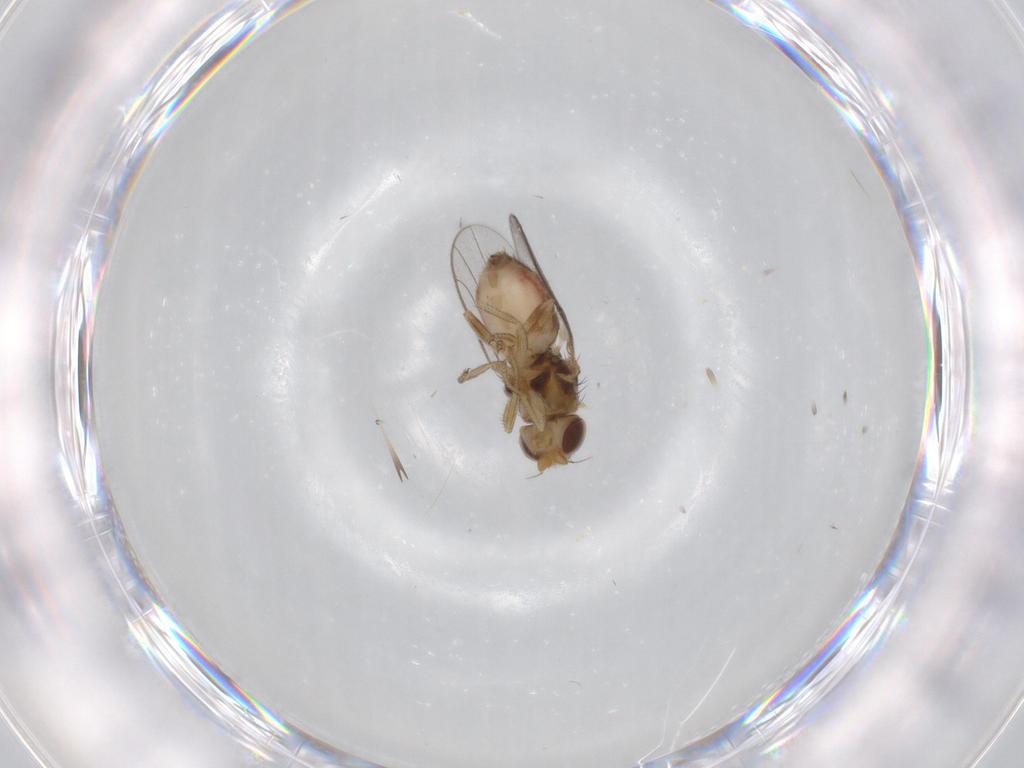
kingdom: Animalia
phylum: Arthropoda
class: Insecta
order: Diptera
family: Chloropidae
